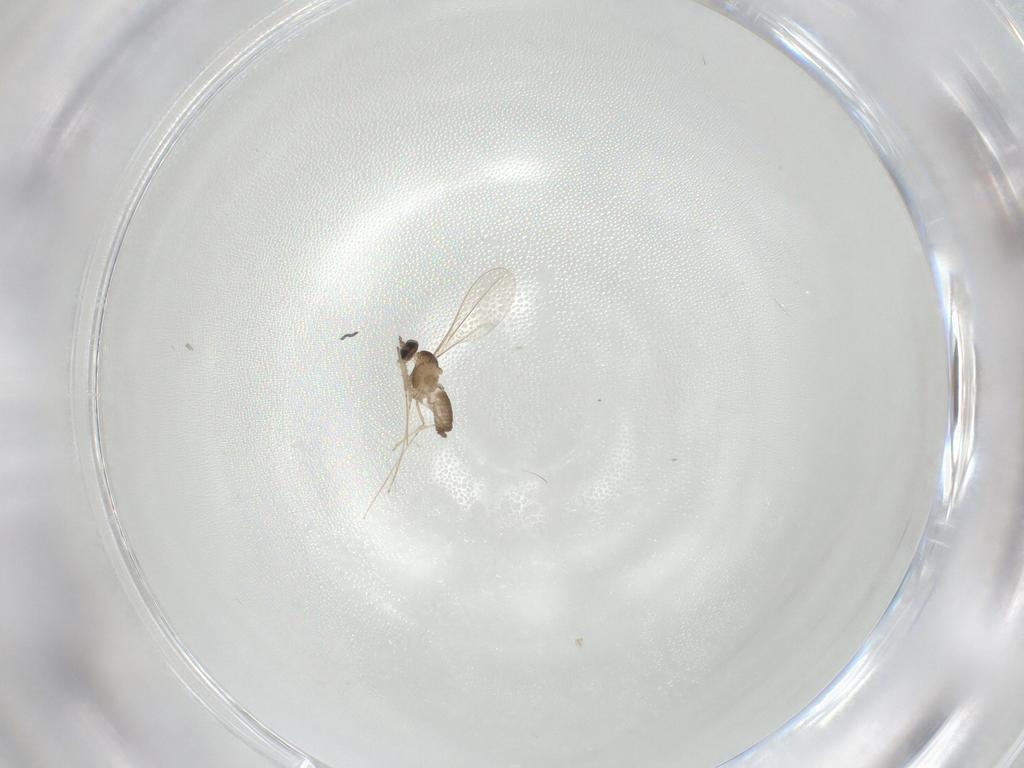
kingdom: Animalia
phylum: Arthropoda
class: Insecta
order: Diptera
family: Cecidomyiidae
